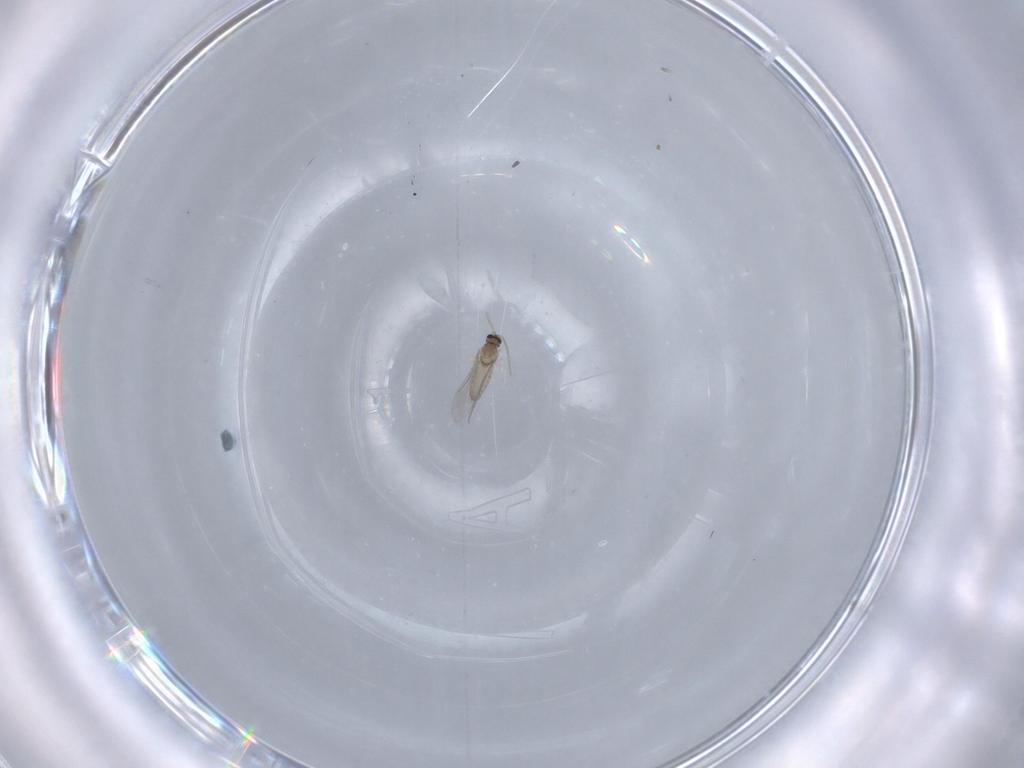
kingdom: Animalia
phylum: Arthropoda
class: Insecta
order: Diptera
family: Cecidomyiidae
